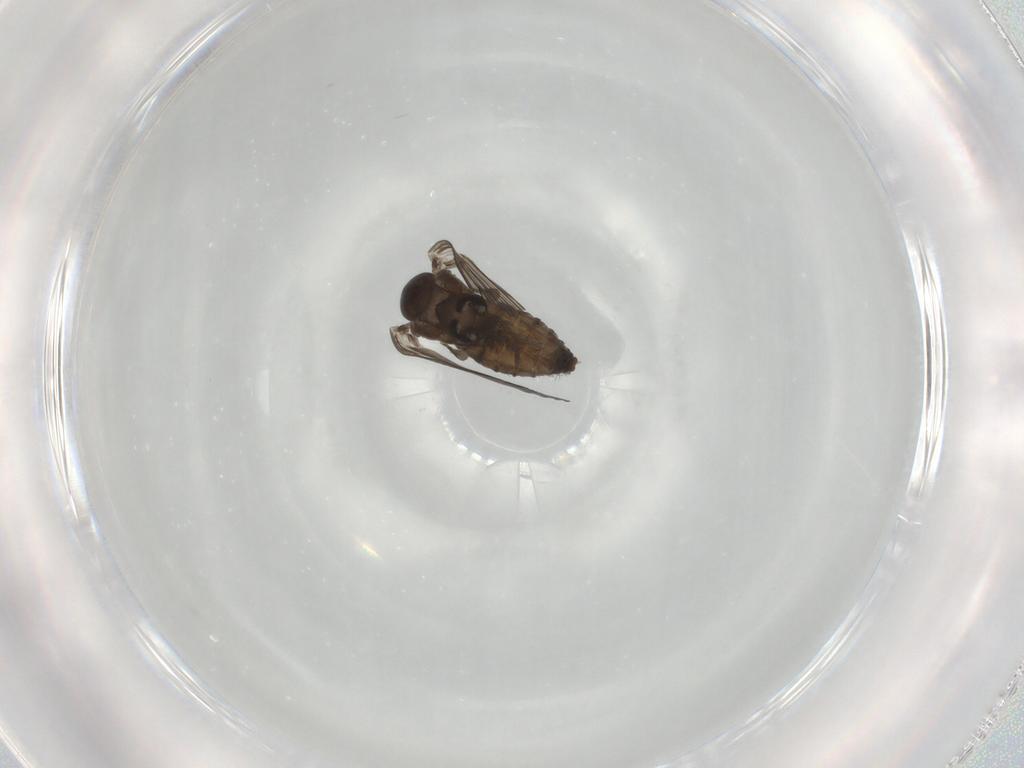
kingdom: Animalia
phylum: Arthropoda
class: Insecta
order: Diptera
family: Psychodidae
